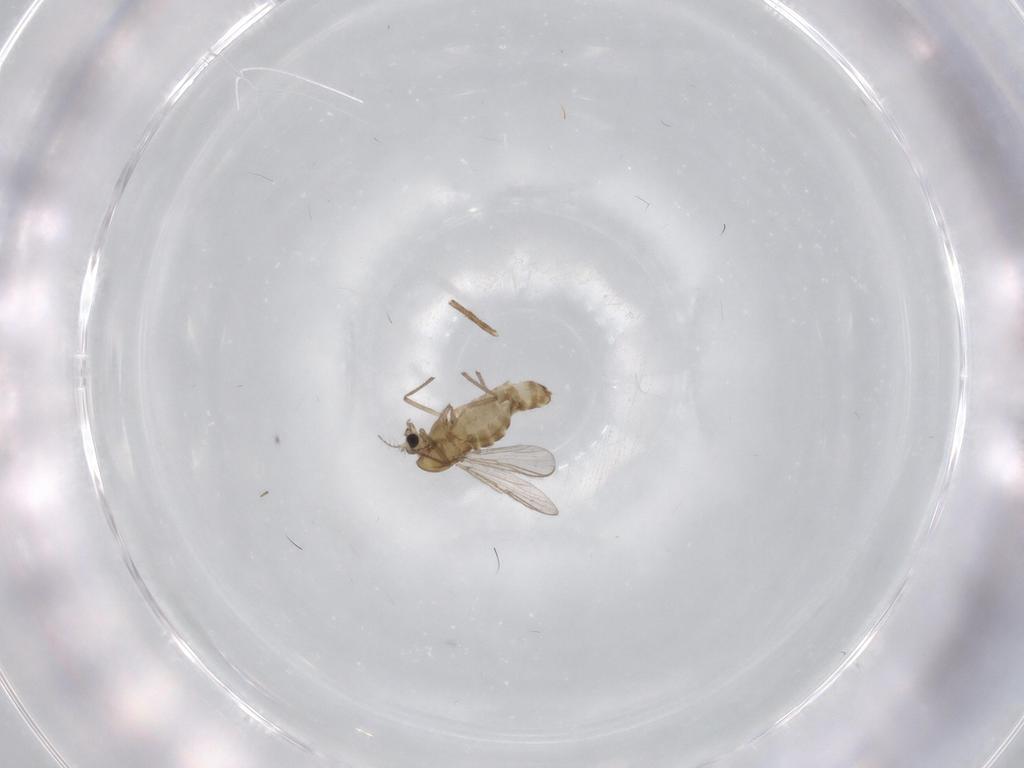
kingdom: Animalia
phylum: Arthropoda
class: Insecta
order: Diptera
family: Chironomidae
